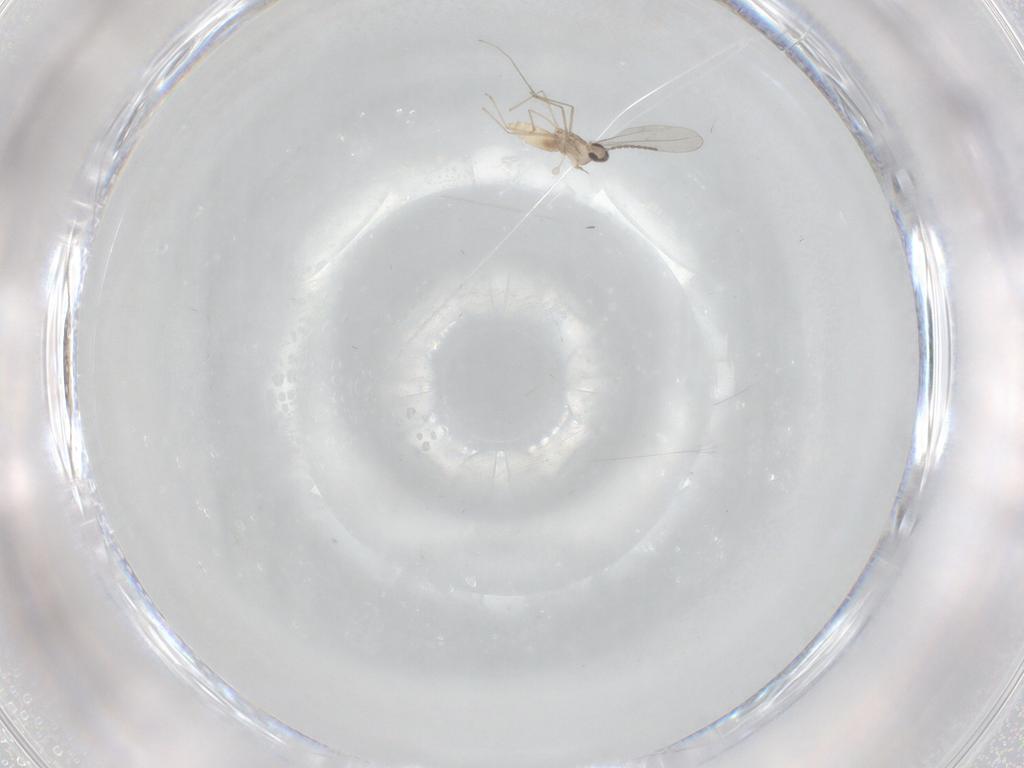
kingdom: Animalia
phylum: Arthropoda
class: Insecta
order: Diptera
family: Cecidomyiidae
